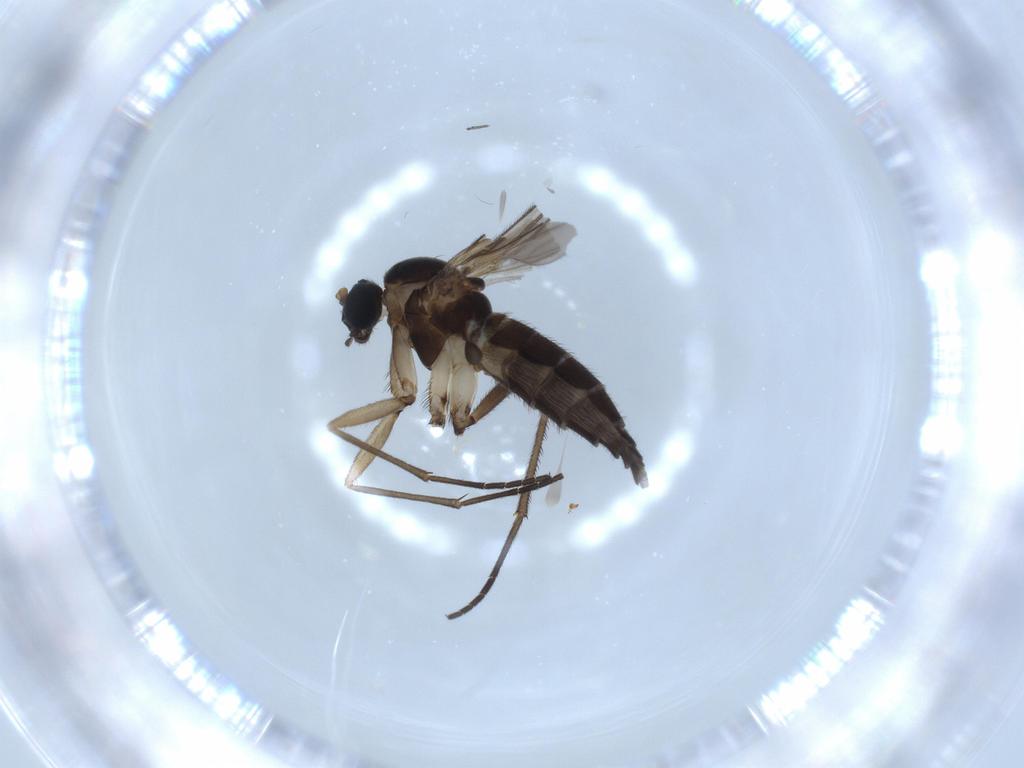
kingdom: Animalia
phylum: Arthropoda
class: Insecta
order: Diptera
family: Sciaridae
